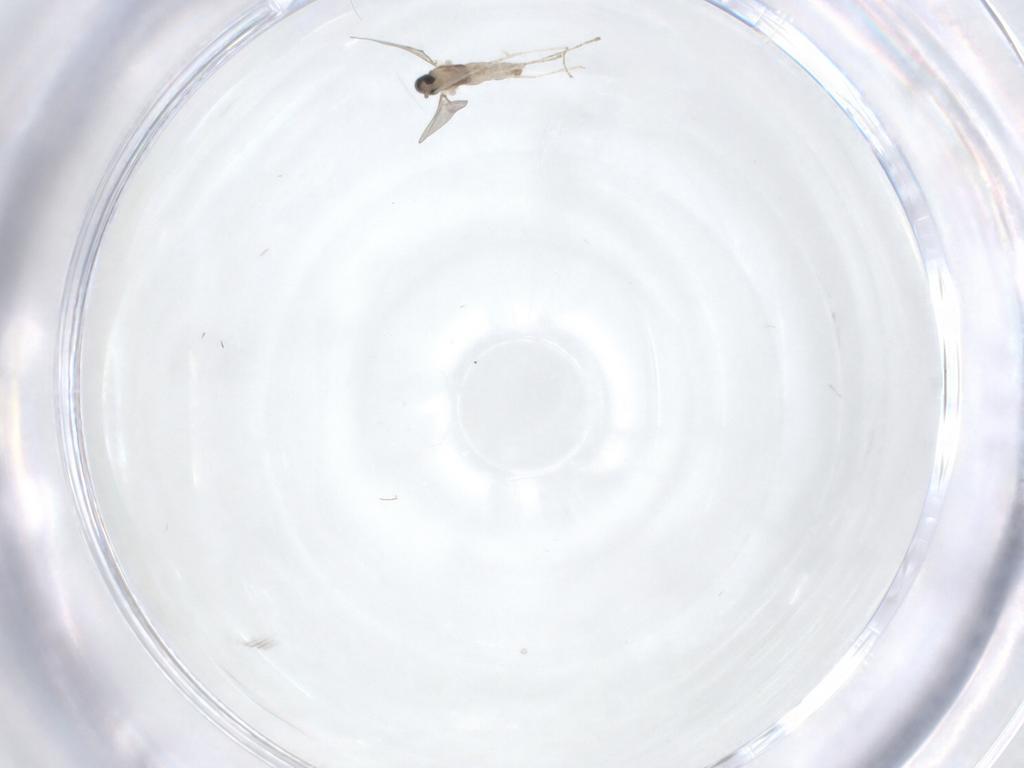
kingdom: Animalia
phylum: Arthropoda
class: Insecta
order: Diptera
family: Cecidomyiidae
